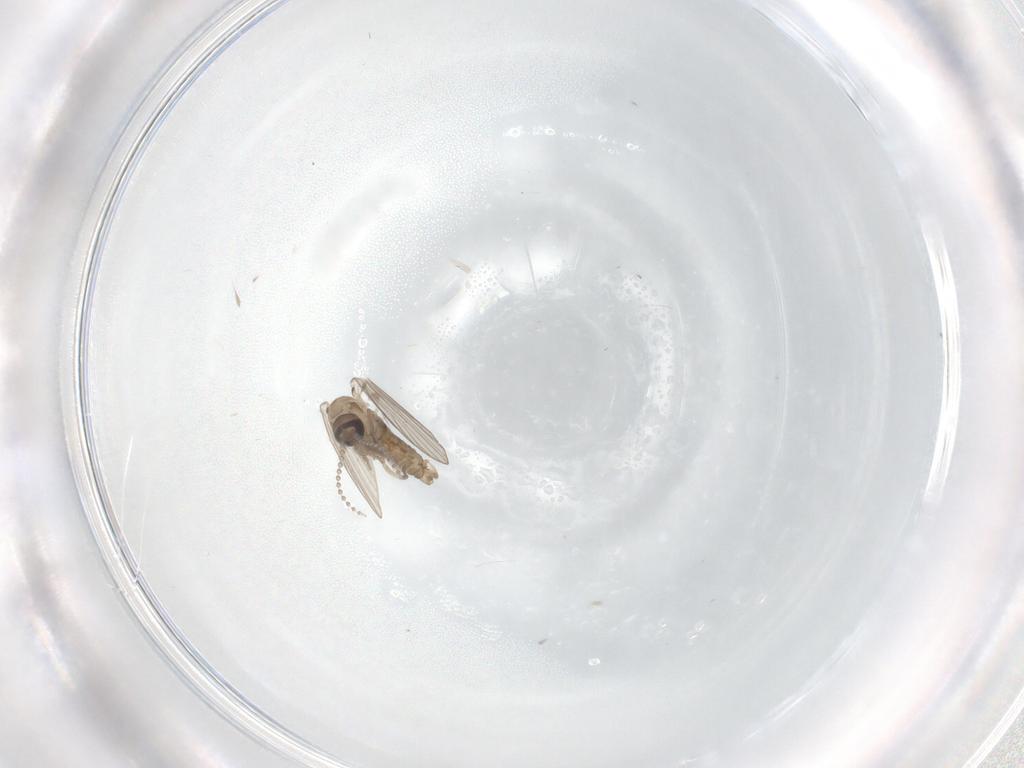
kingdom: Animalia
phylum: Arthropoda
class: Insecta
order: Diptera
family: Psychodidae
